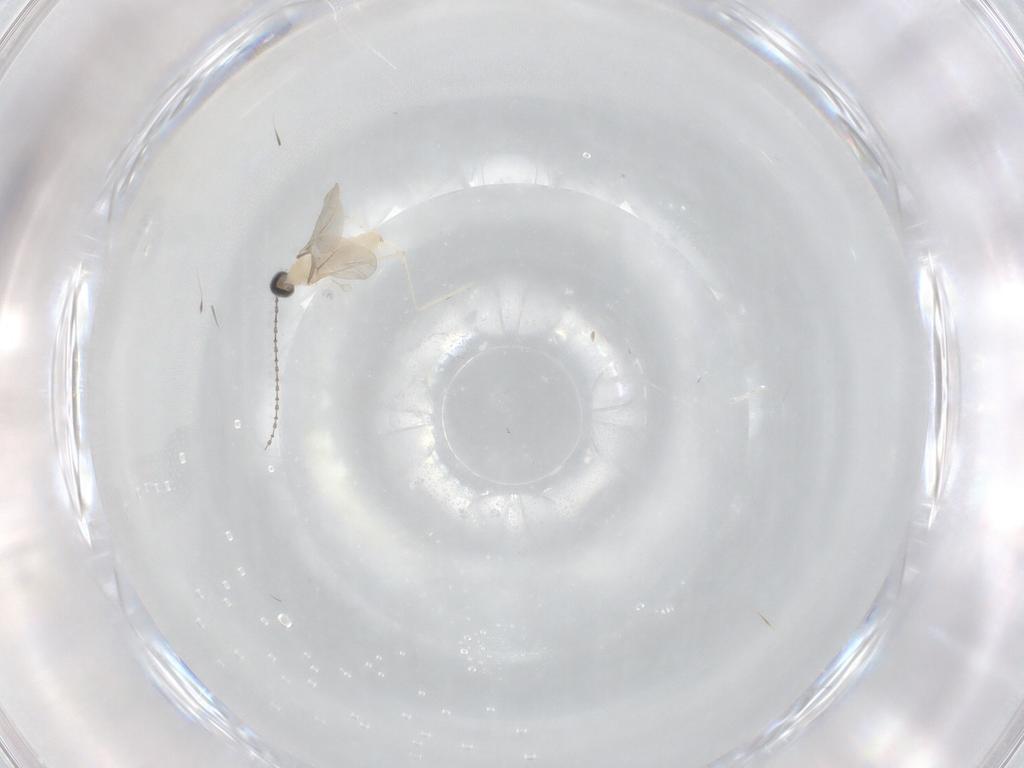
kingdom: Animalia
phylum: Arthropoda
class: Insecta
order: Diptera
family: Cecidomyiidae
